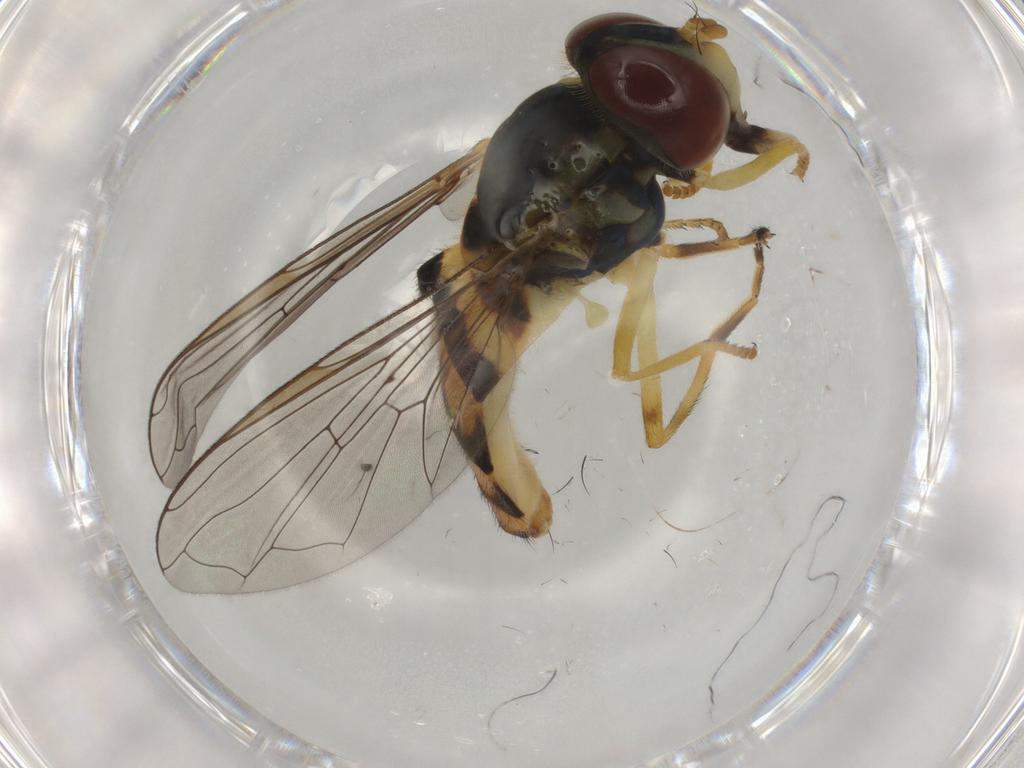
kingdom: Animalia
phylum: Arthropoda
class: Insecta
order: Diptera
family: Syrphidae
